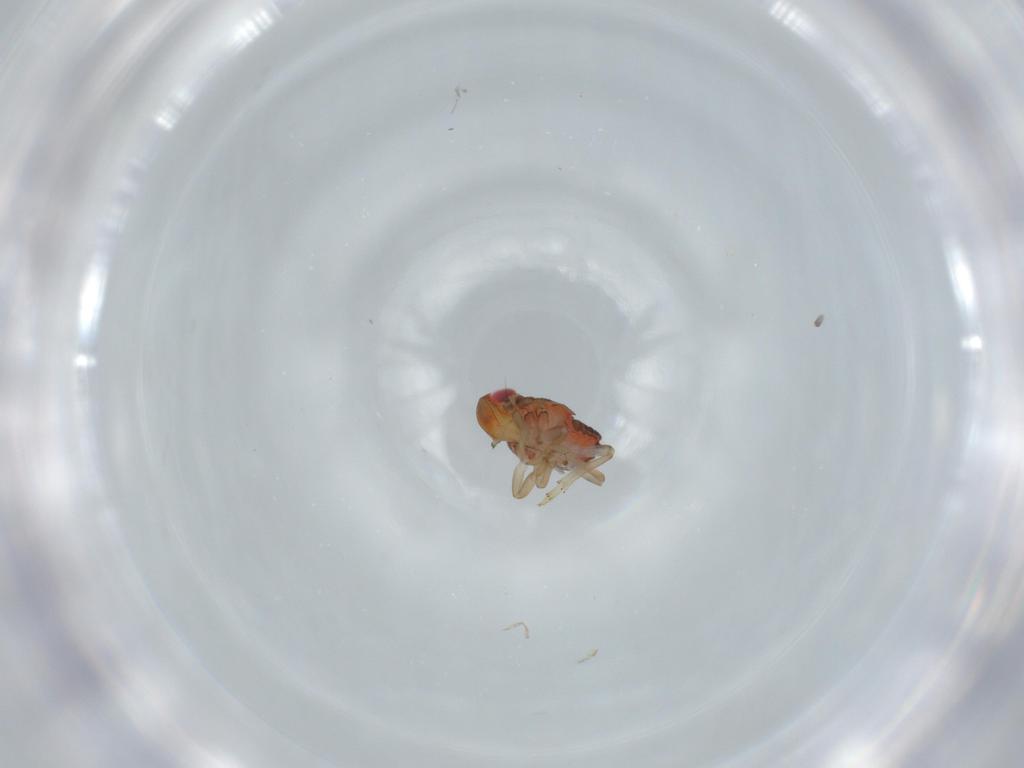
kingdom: Animalia
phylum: Arthropoda
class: Insecta
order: Hemiptera
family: Issidae
